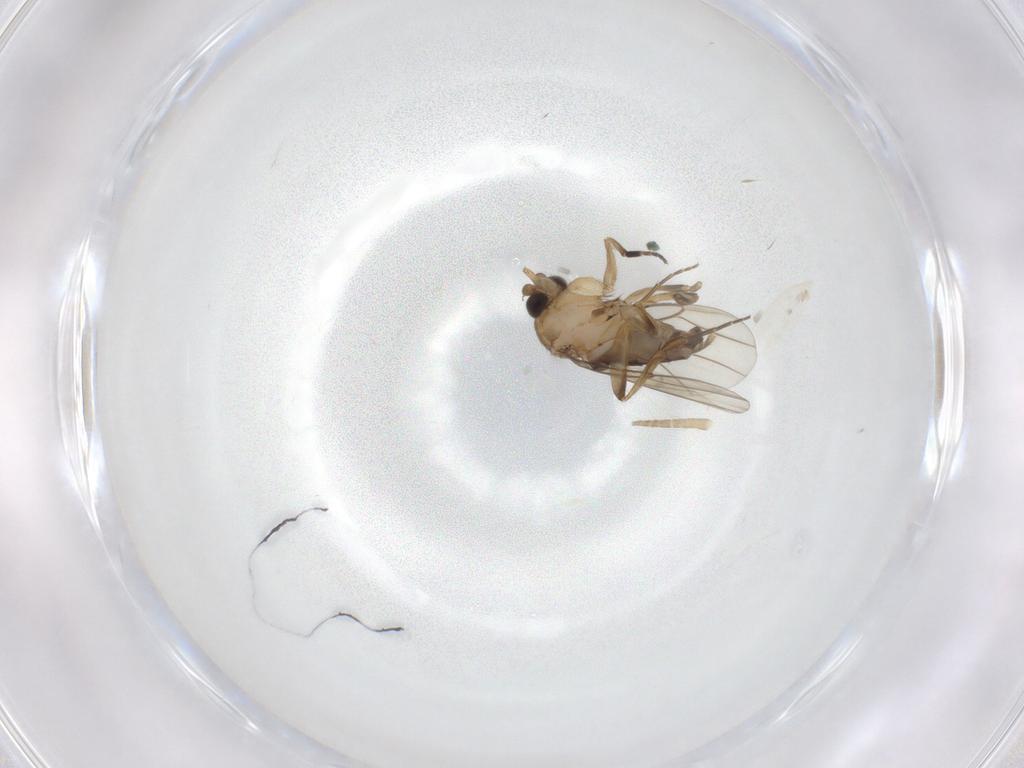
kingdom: Animalia
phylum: Arthropoda
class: Insecta
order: Diptera
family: Phoridae
